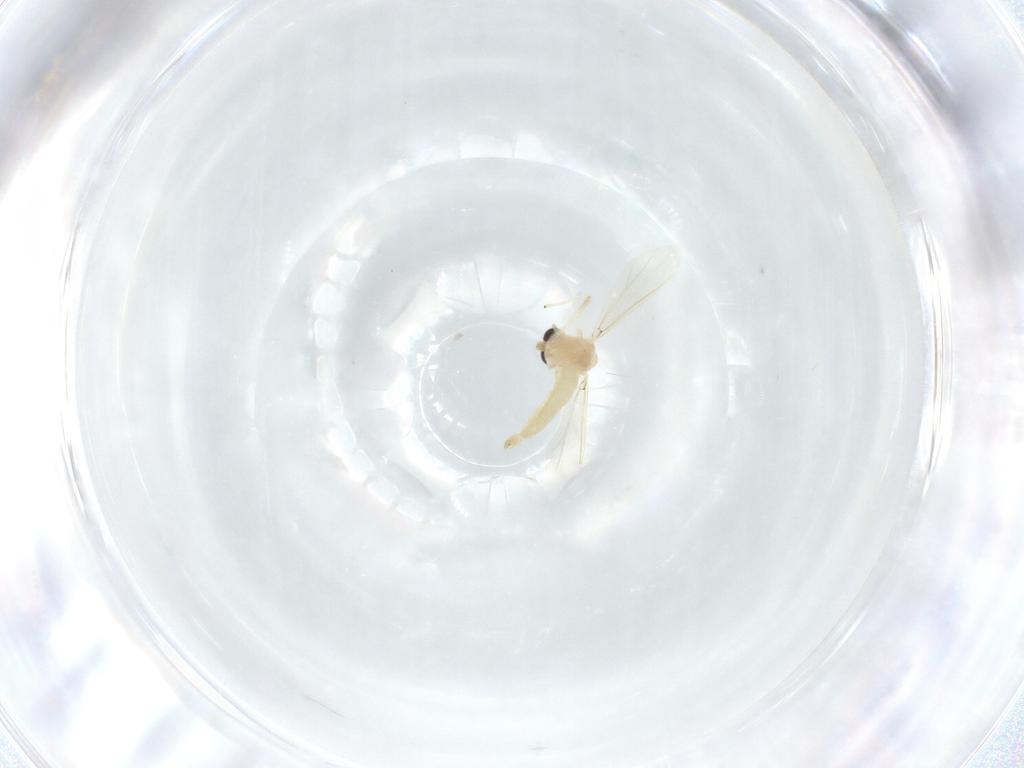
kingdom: Animalia
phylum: Arthropoda
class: Insecta
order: Diptera
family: Chironomidae
